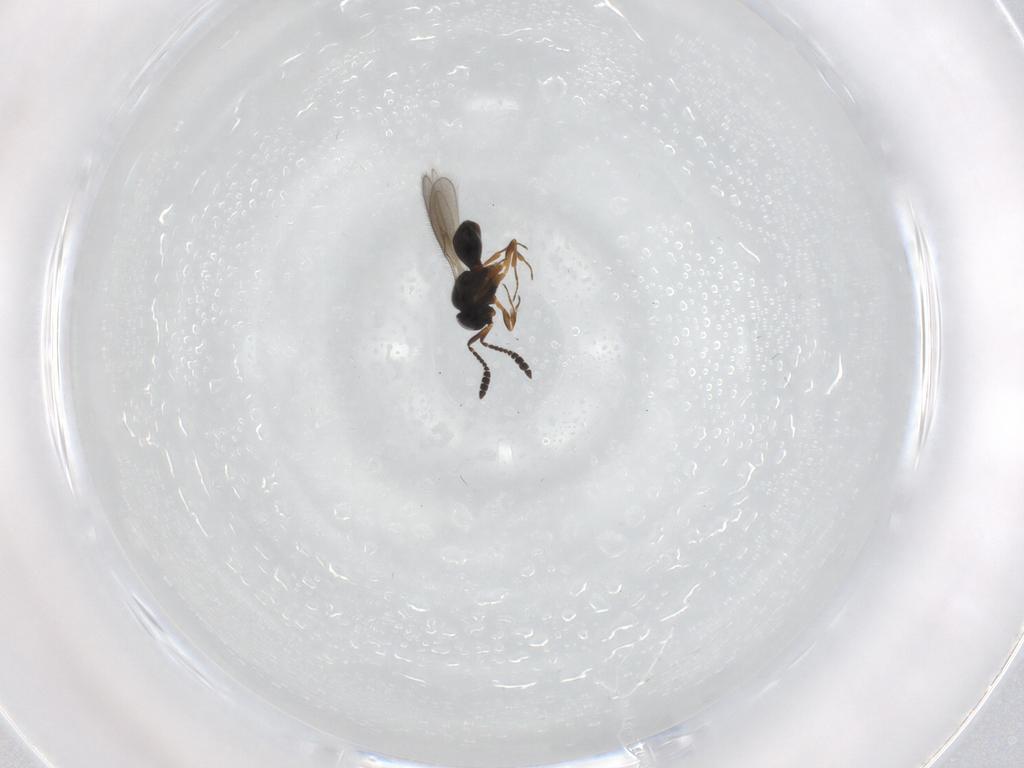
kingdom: Animalia
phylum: Arthropoda
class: Insecta
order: Hymenoptera
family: Scelionidae
